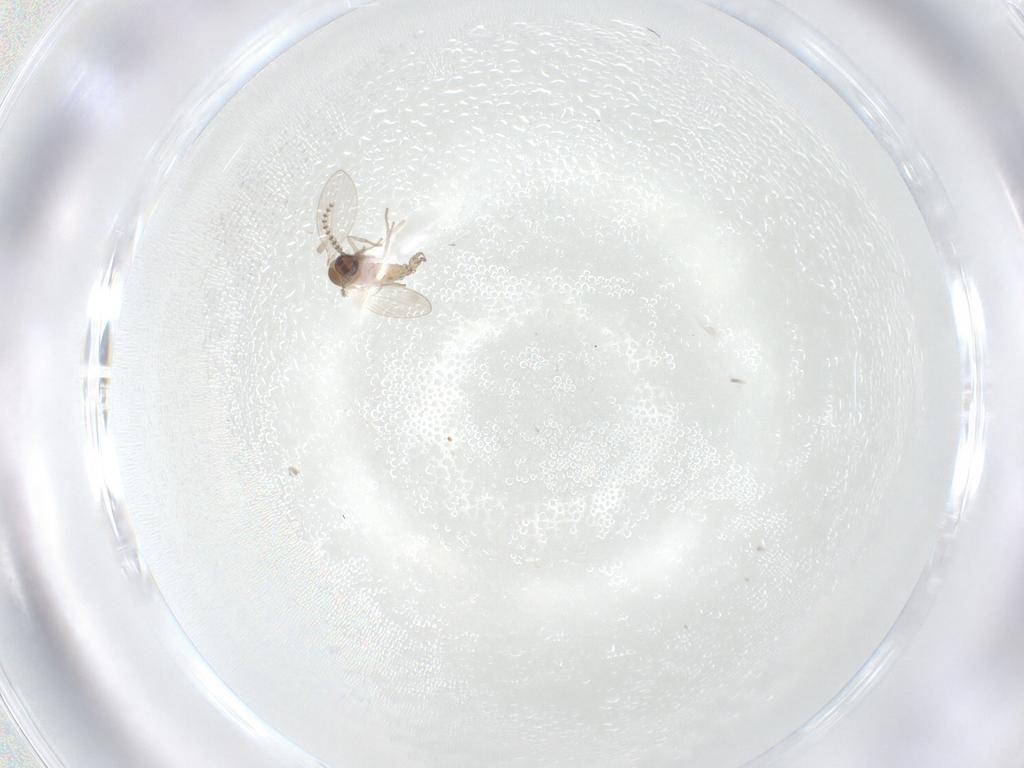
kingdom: Animalia
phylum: Arthropoda
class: Insecta
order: Diptera
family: Psychodidae
